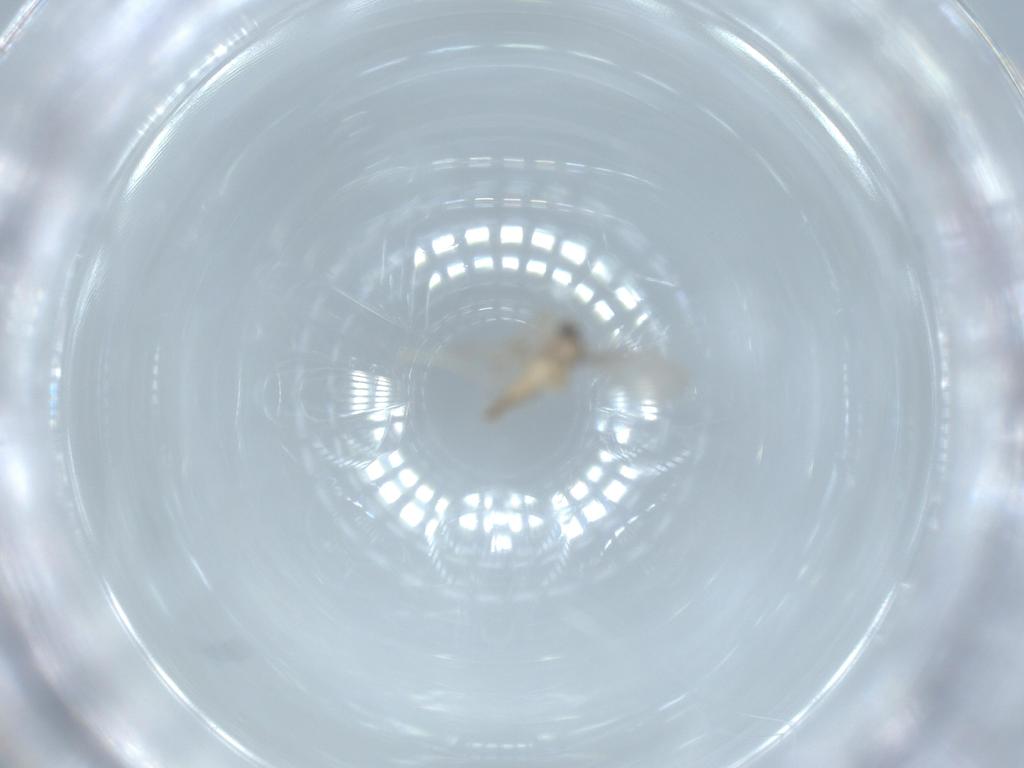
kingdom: Animalia
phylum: Arthropoda
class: Insecta
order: Diptera
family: Cecidomyiidae
